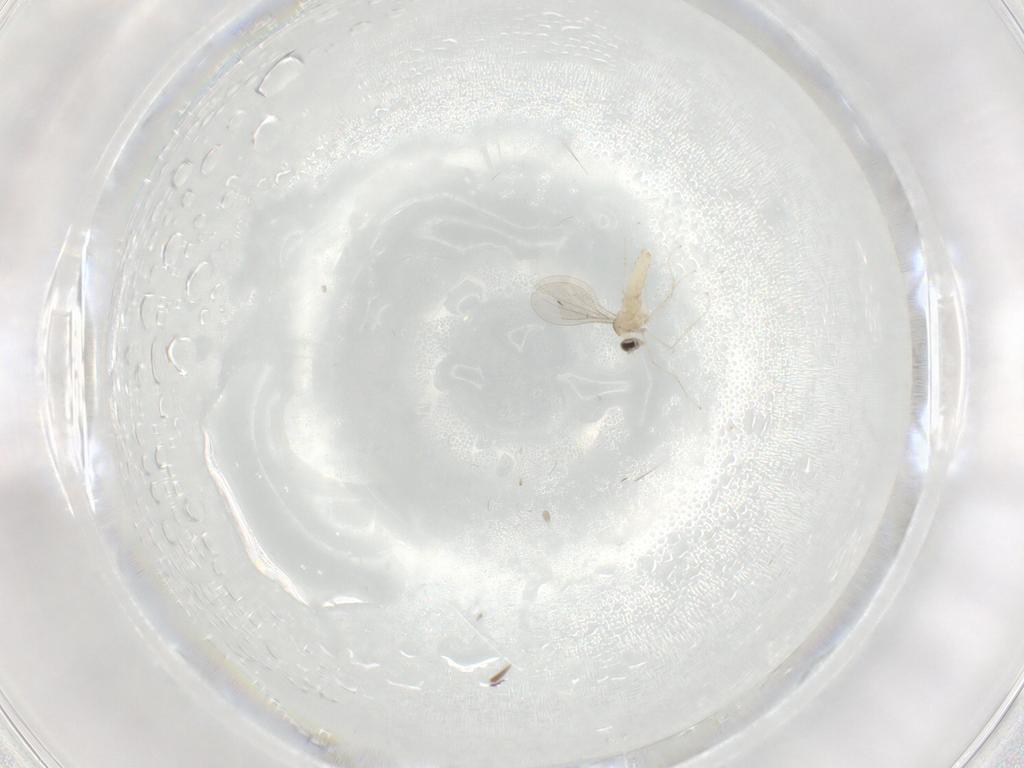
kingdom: Animalia
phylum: Arthropoda
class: Insecta
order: Diptera
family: Cecidomyiidae
